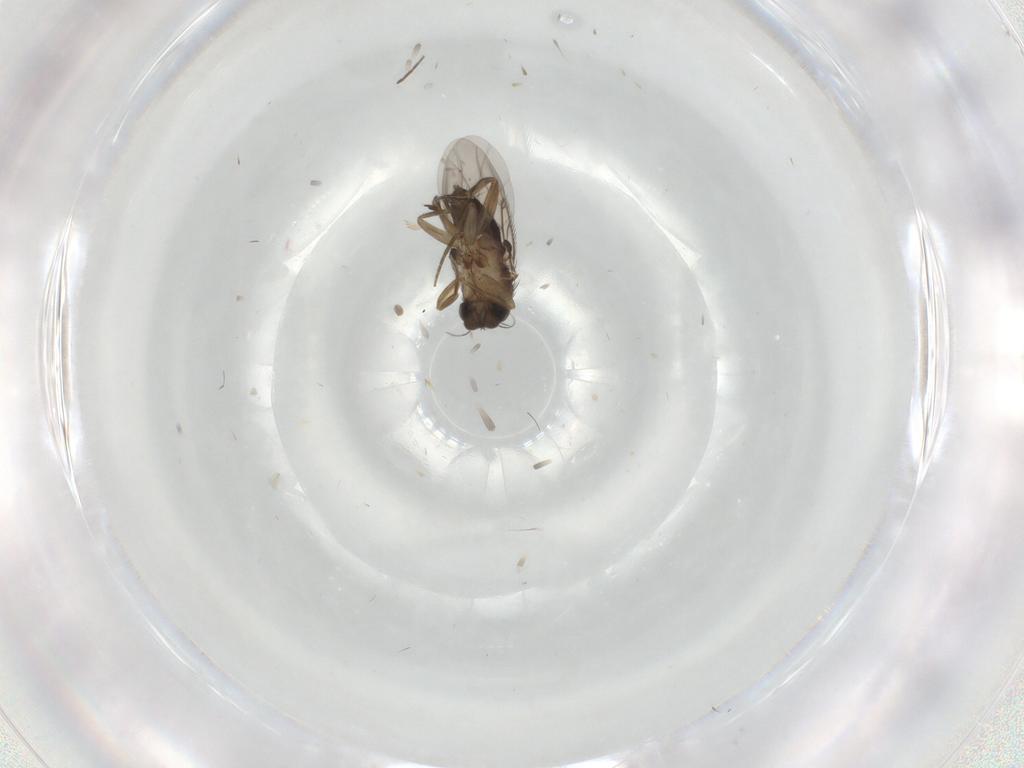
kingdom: Animalia
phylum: Arthropoda
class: Insecta
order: Diptera
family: Phoridae
